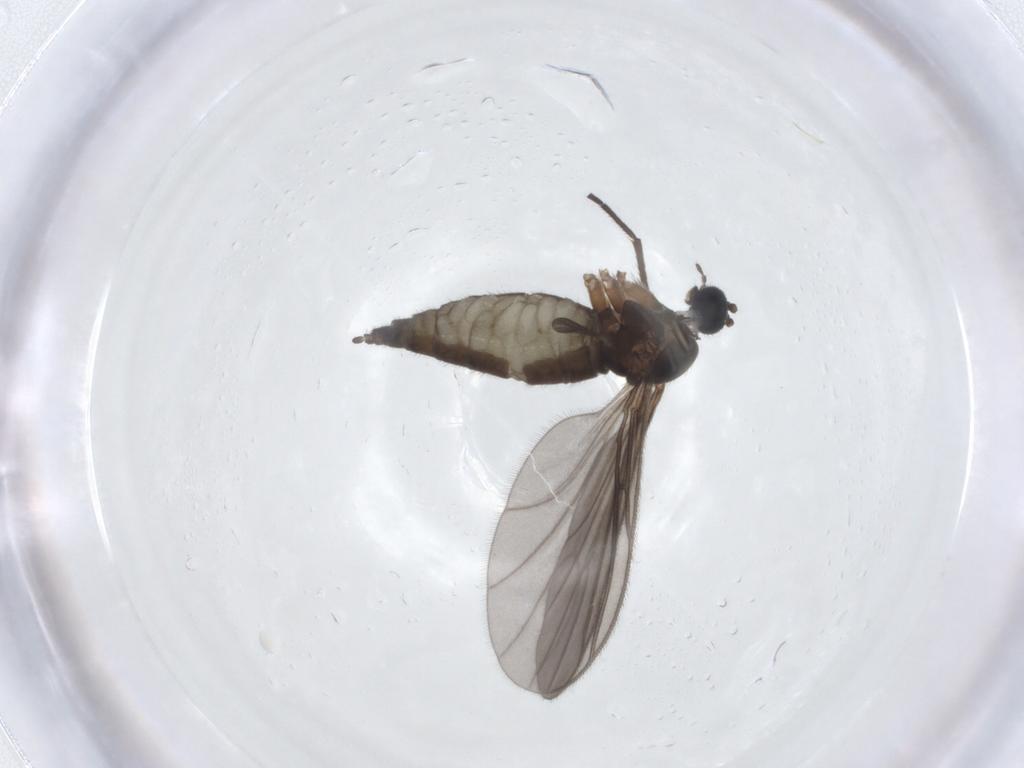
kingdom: Animalia
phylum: Arthropoda
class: Insecta
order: Diptera
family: Sciaridae
